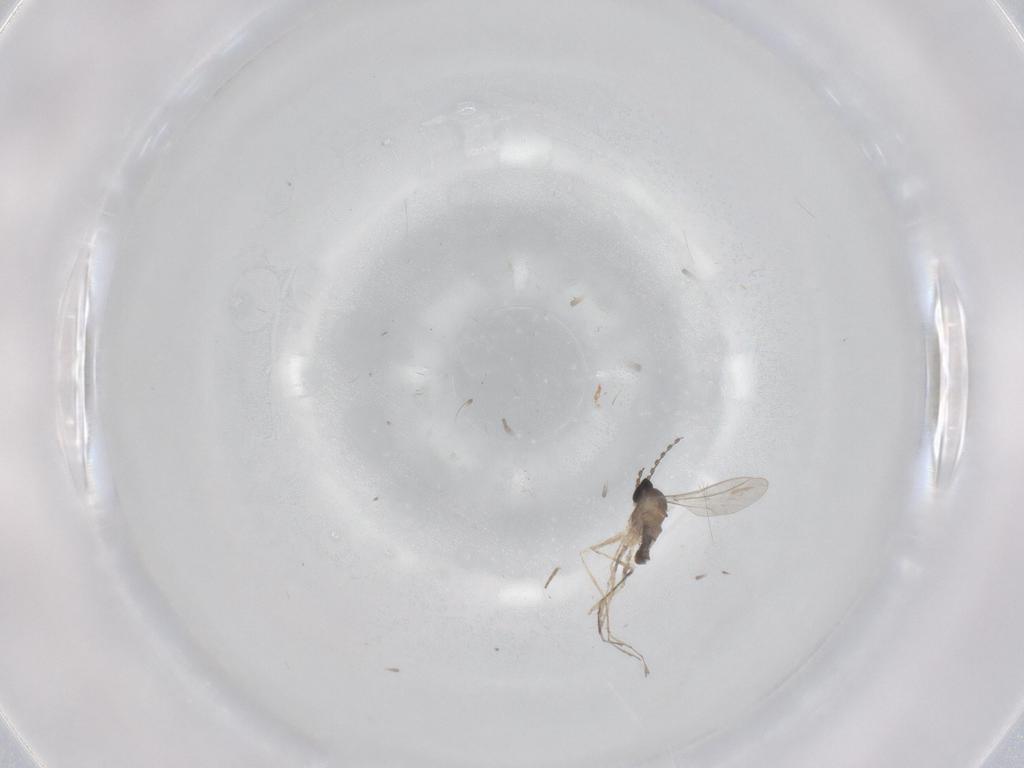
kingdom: Animalia
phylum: Arthropoda
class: Insecta
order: Diptera
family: Cecidomyiidae
